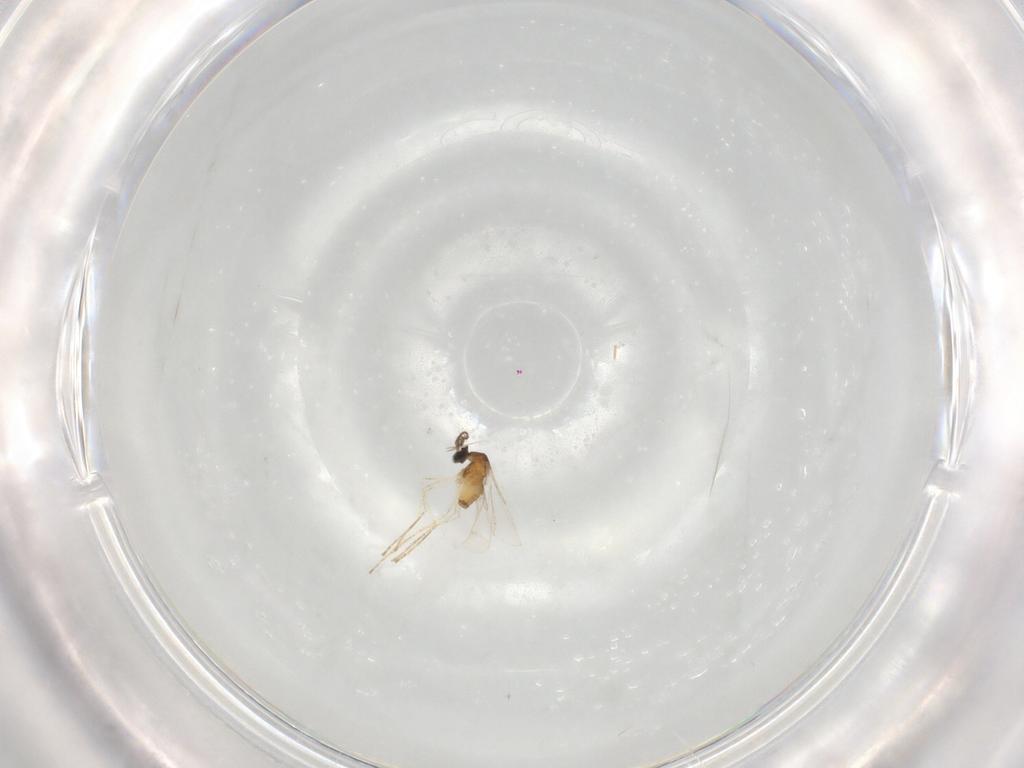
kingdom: Animalia
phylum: Arthropoda
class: Insecta
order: Diptera
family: Cecidomyiidae
